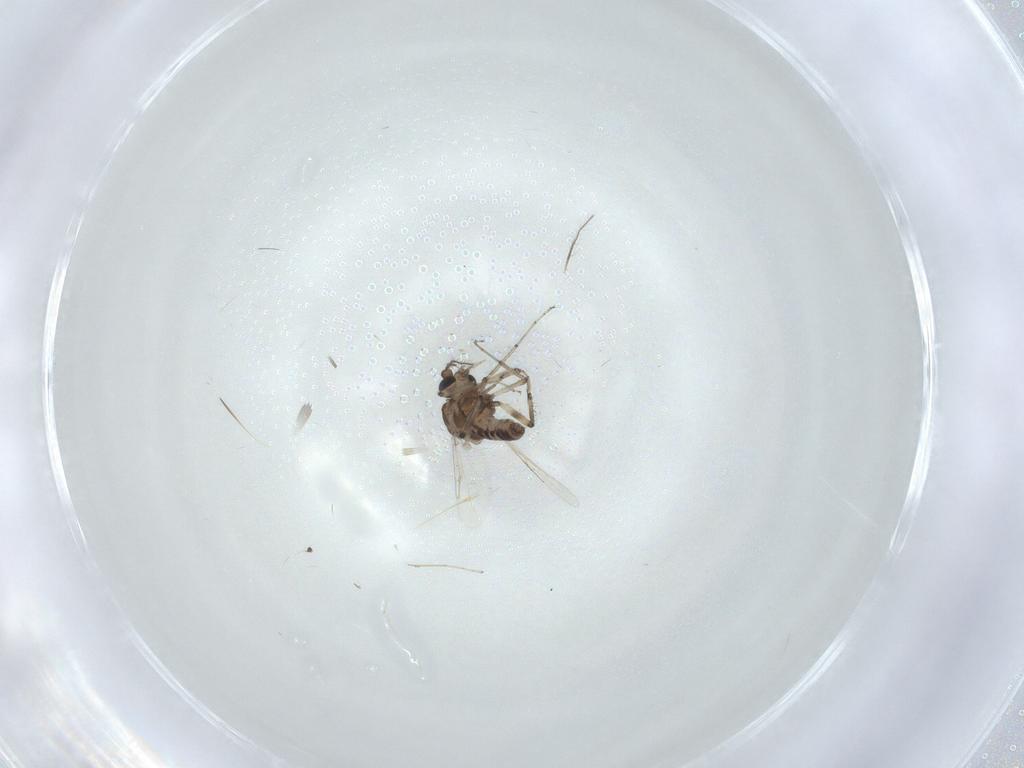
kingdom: Animalia
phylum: Arthropoda
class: Insecta
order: Diptera
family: Ceratopogonidae
